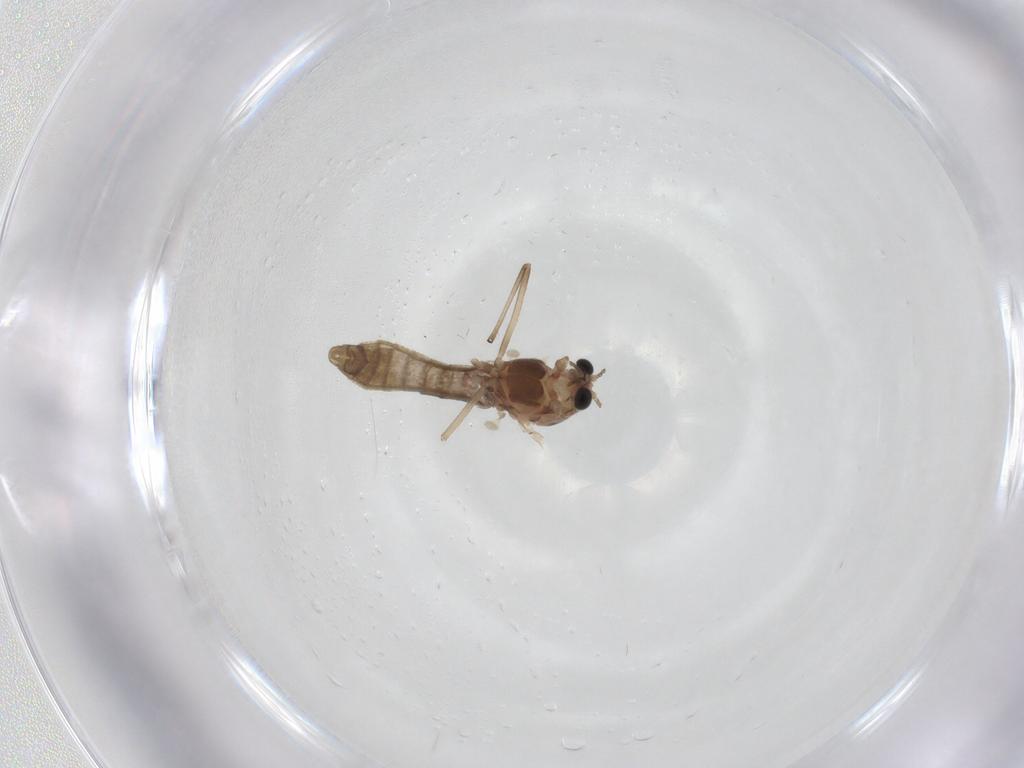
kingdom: Animalia
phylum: Arthropoda
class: Insecta
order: Diptera
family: Chironomidae
